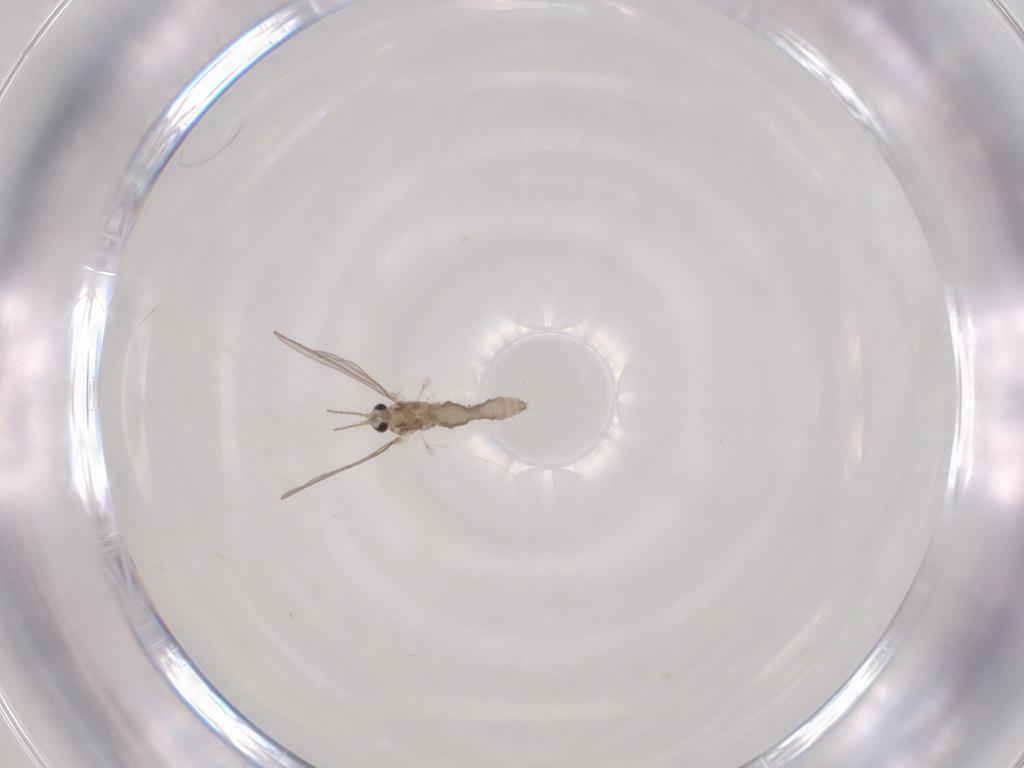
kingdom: Animalia
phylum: Arthropoda
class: Insecta
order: Diptera
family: Cecidomyiidae
